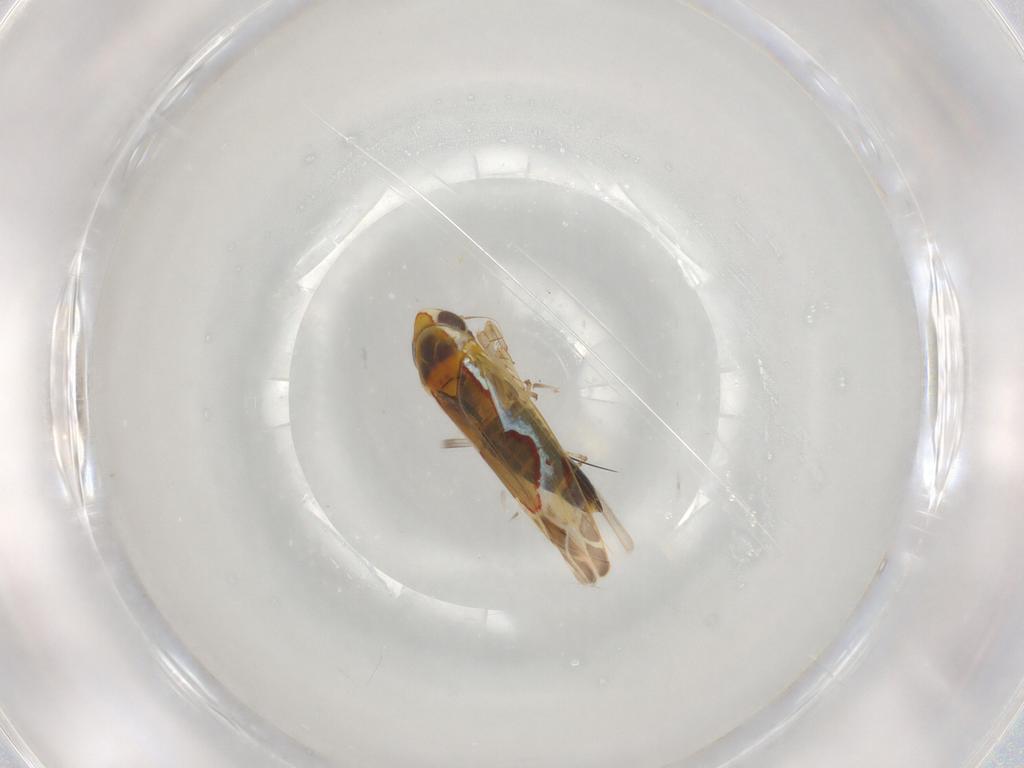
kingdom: Animalia
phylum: Arthropoda
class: Insecta
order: Hemiptera
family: Cicadellidae
